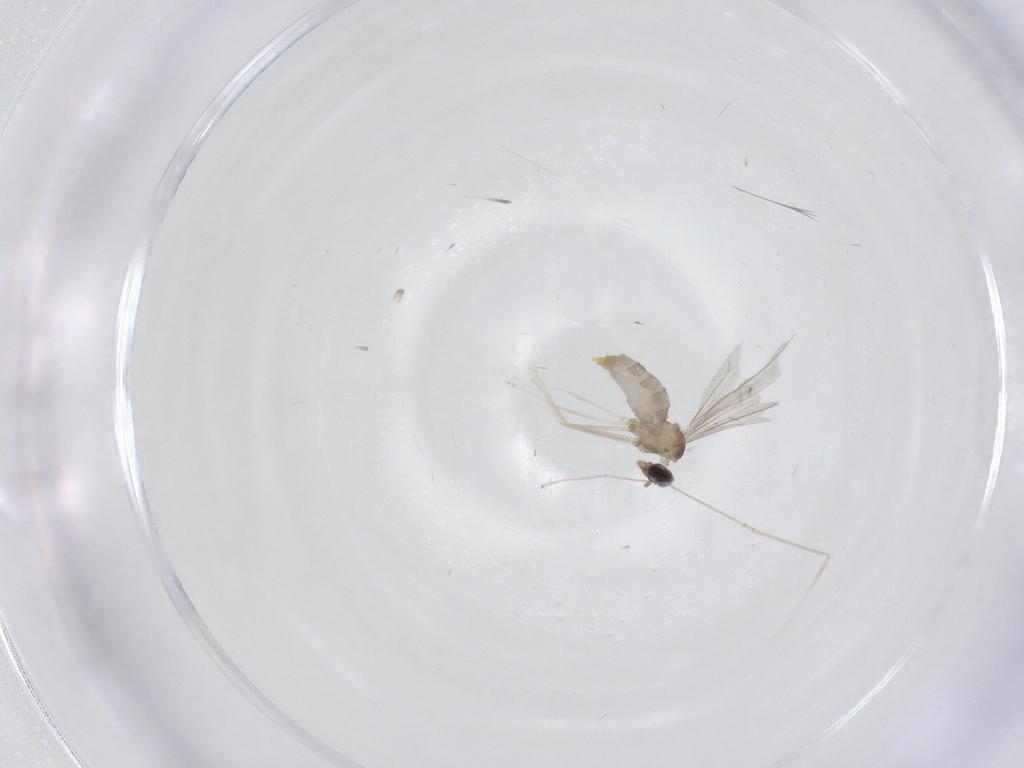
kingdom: Animalia
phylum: Arthropoda
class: Insecta
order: Diptera
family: Cecidomyiidae
